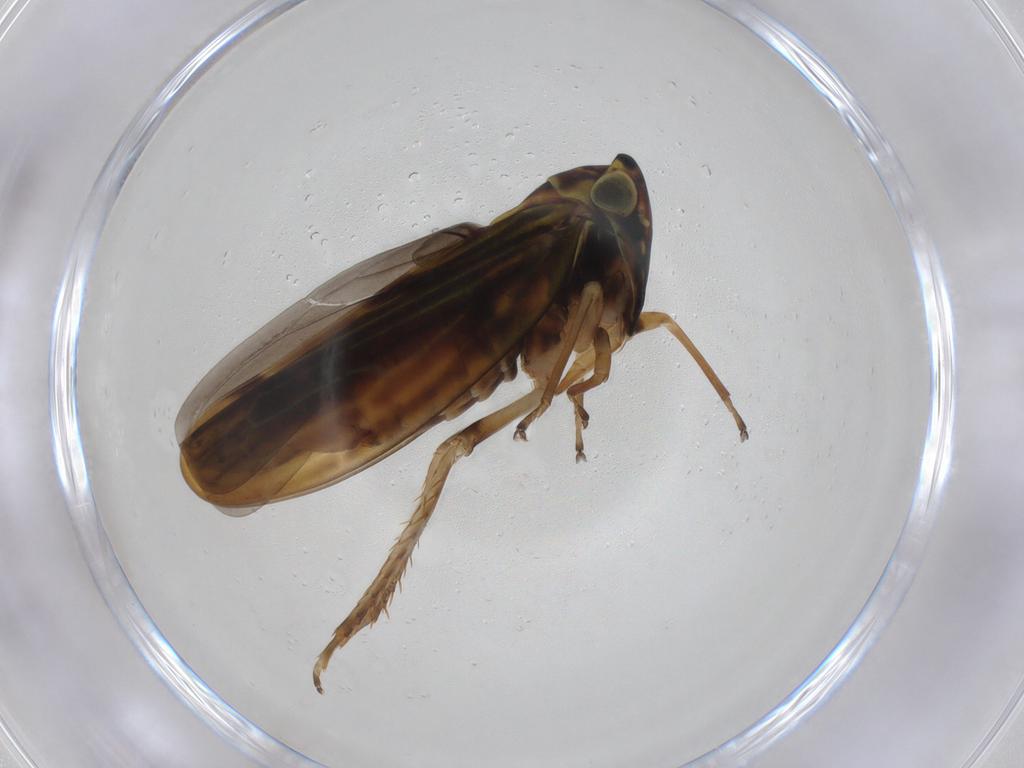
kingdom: Animalia
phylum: Arthropoda
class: Insecta
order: Hemiptera
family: Cicadellidae
